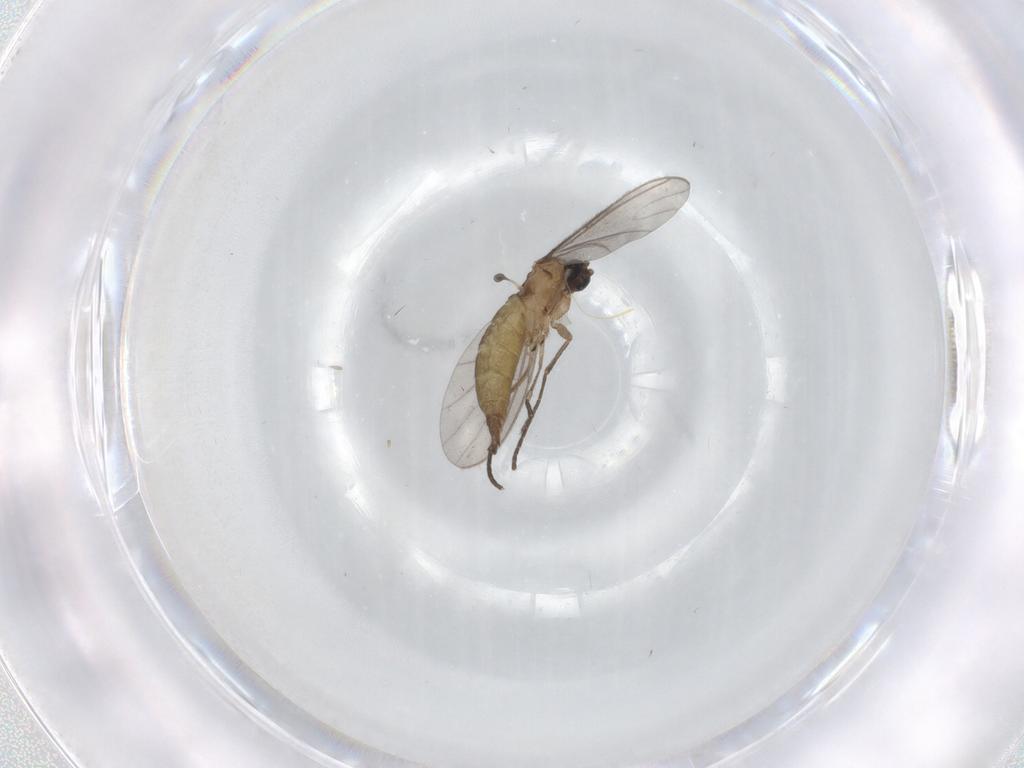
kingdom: Animalia
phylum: Arthropoda
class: Insecta
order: Diptera
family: Sciaridae
